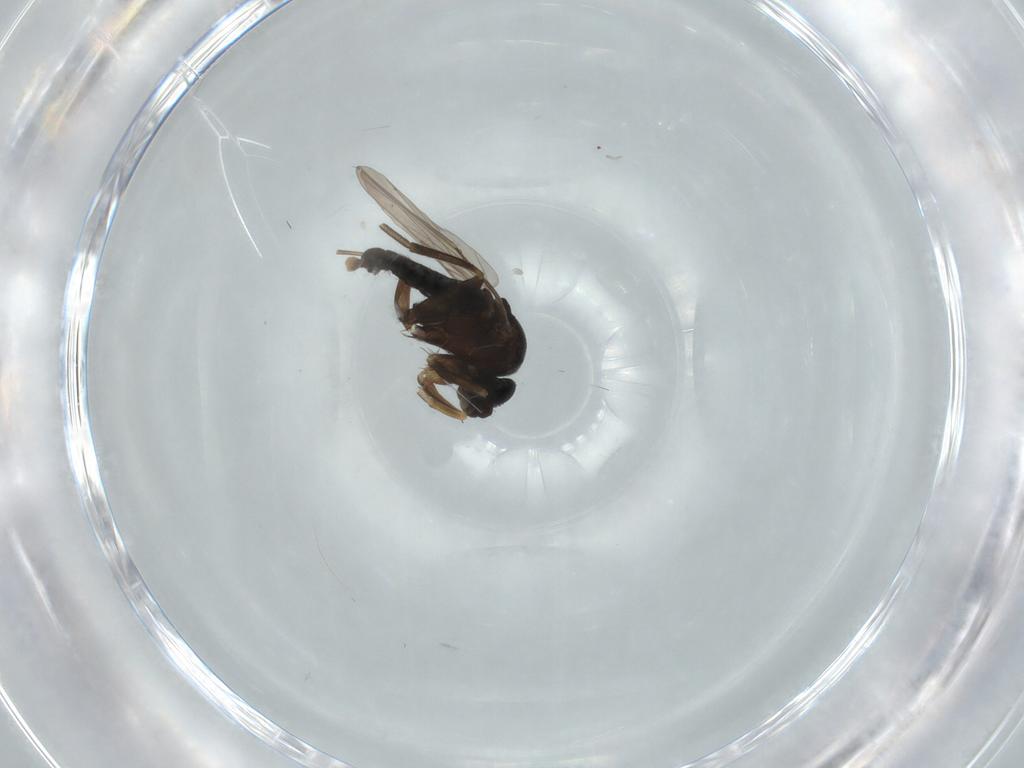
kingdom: Animalia
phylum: Arthropoda
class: Insecta
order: Diptera
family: Phoridae
